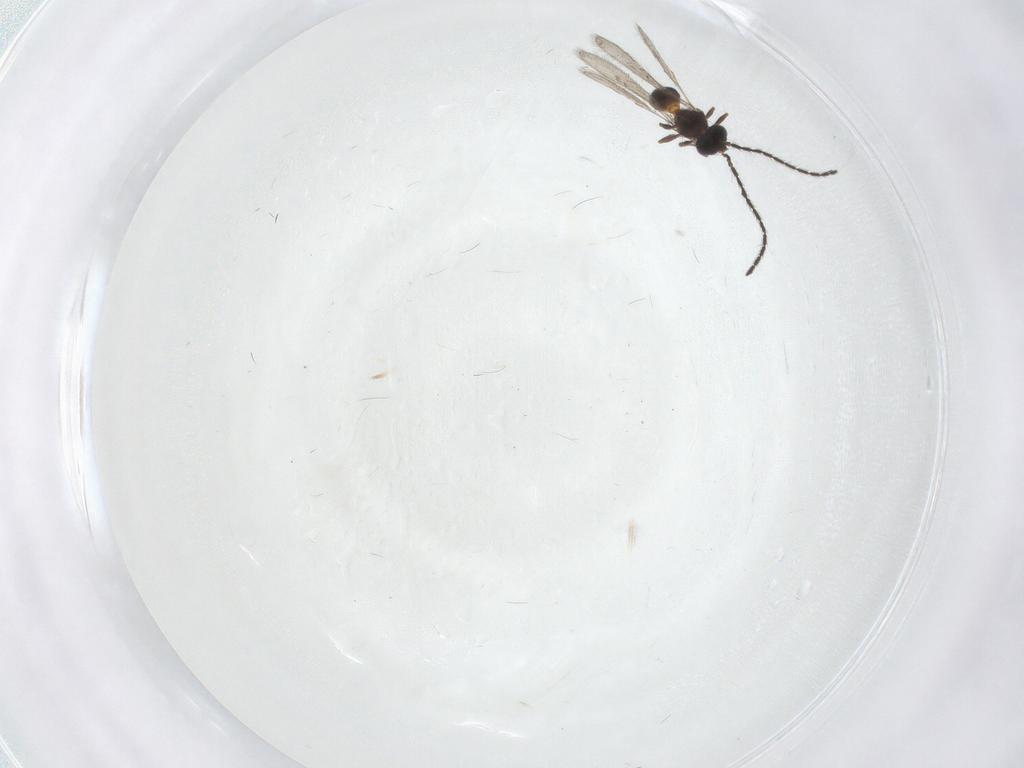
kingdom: Animalia
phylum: Arthropoda
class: Insecta
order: Hymenoptera
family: Scelionidae
